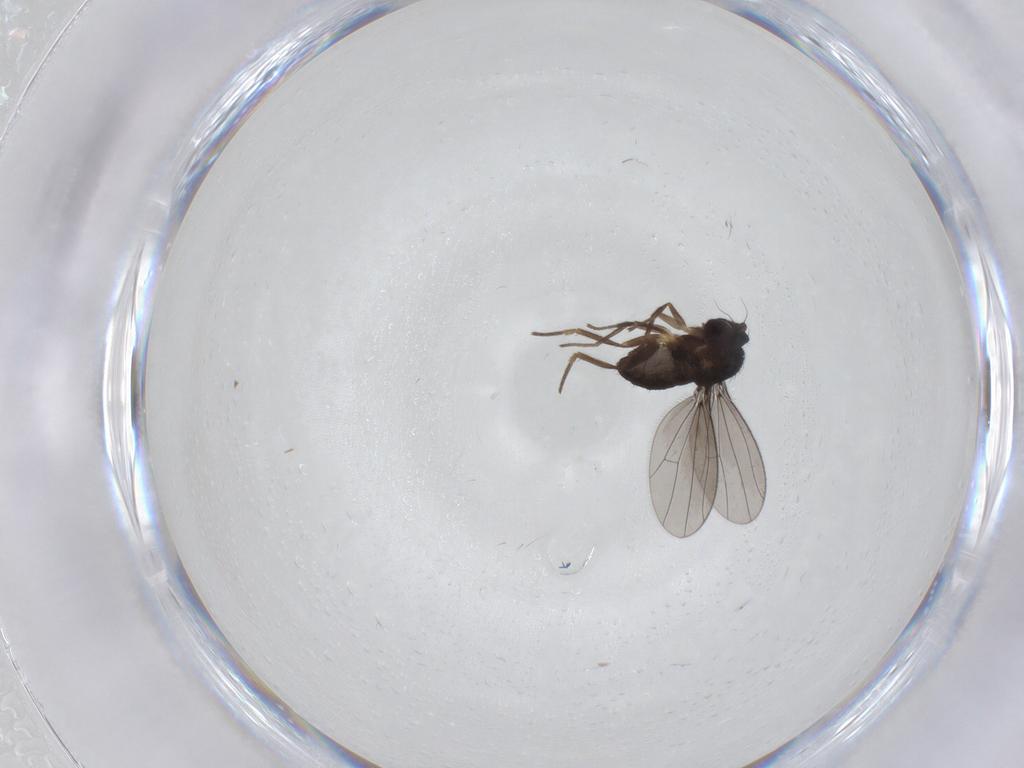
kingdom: Animalia
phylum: Arthropoda
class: Insecta
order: Diptera
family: Dolichopodidae
